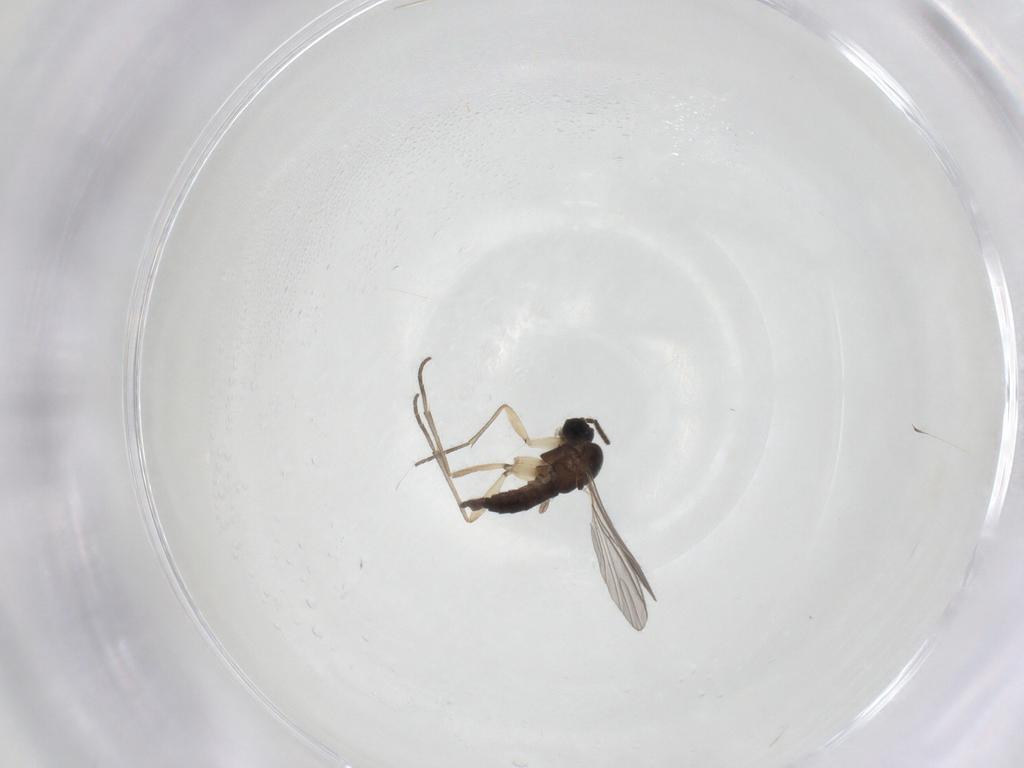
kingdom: Animalia
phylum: Arthropoda
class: Insecta
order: Diptera
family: Sciaridae
